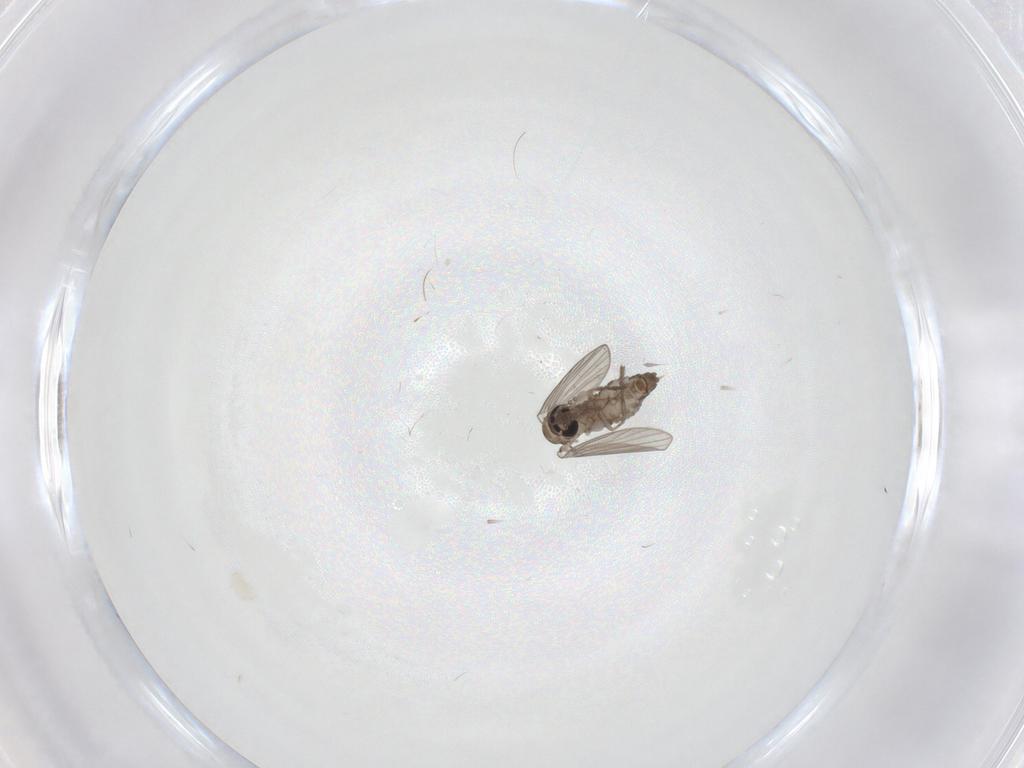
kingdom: Animalia
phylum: Arthropoda
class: Insecta
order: Diptera
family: Psychodidae
